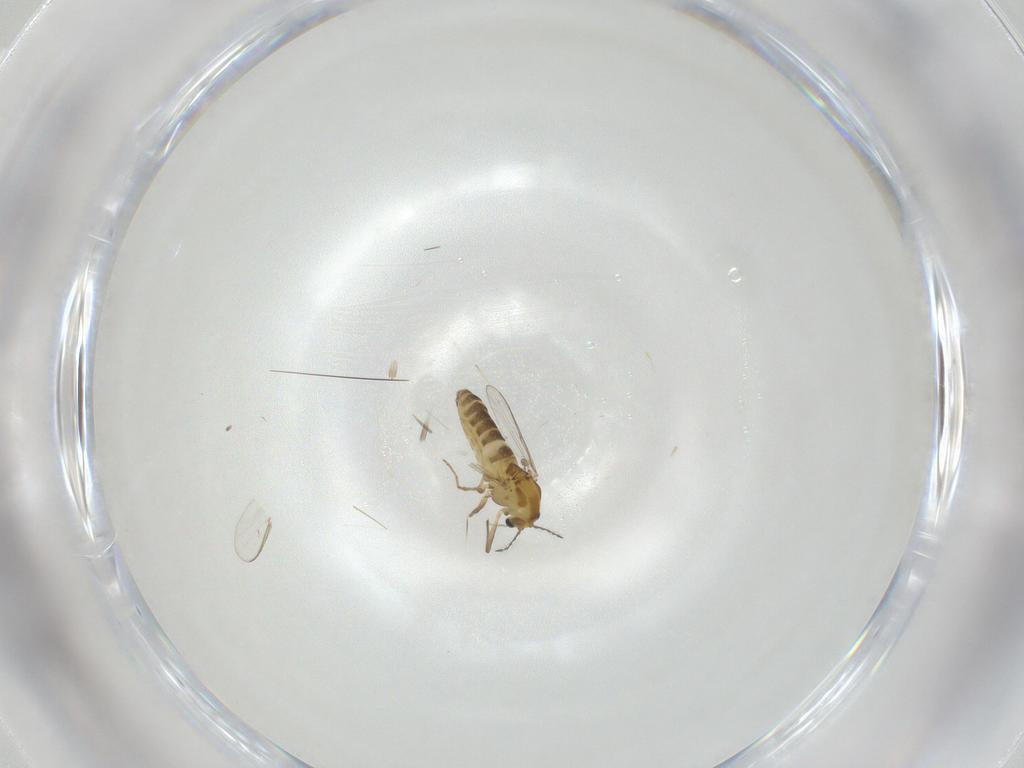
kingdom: Animalia
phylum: Arthropoda
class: Insecta
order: Diptera
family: Chironomidae
